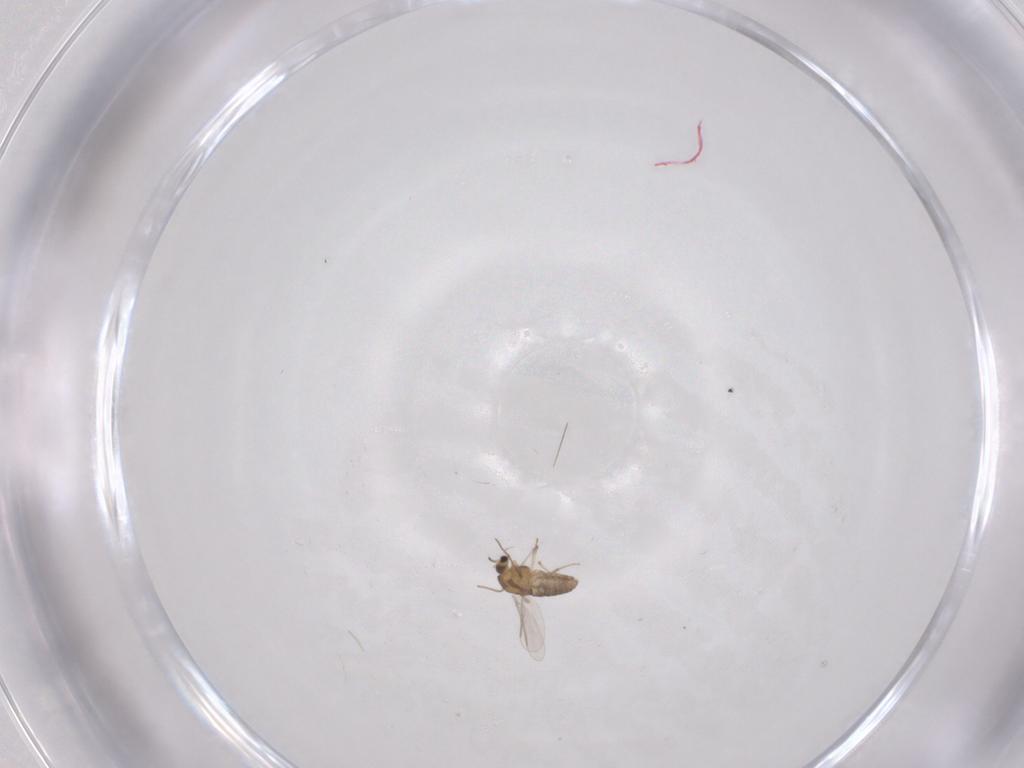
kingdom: Animalia
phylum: Arthropoda
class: Insecta
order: Diptera
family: Chironomidae
